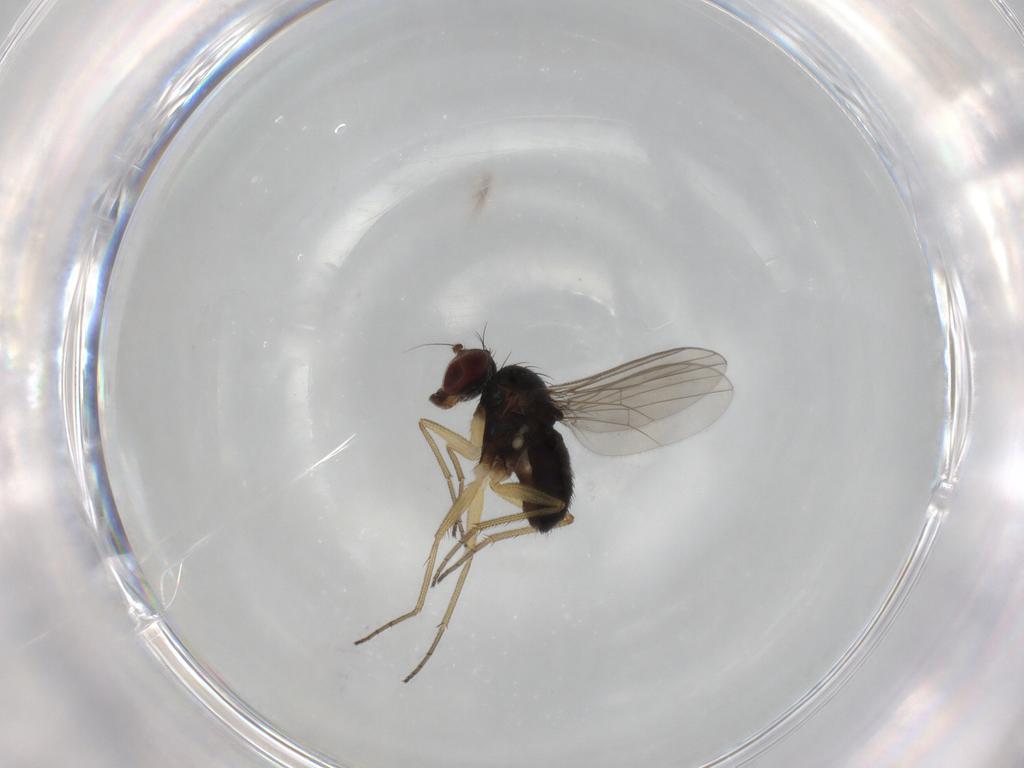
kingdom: Animalia
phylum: Arthropoda
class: Insecta
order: Diptera
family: Dolichopodidae
